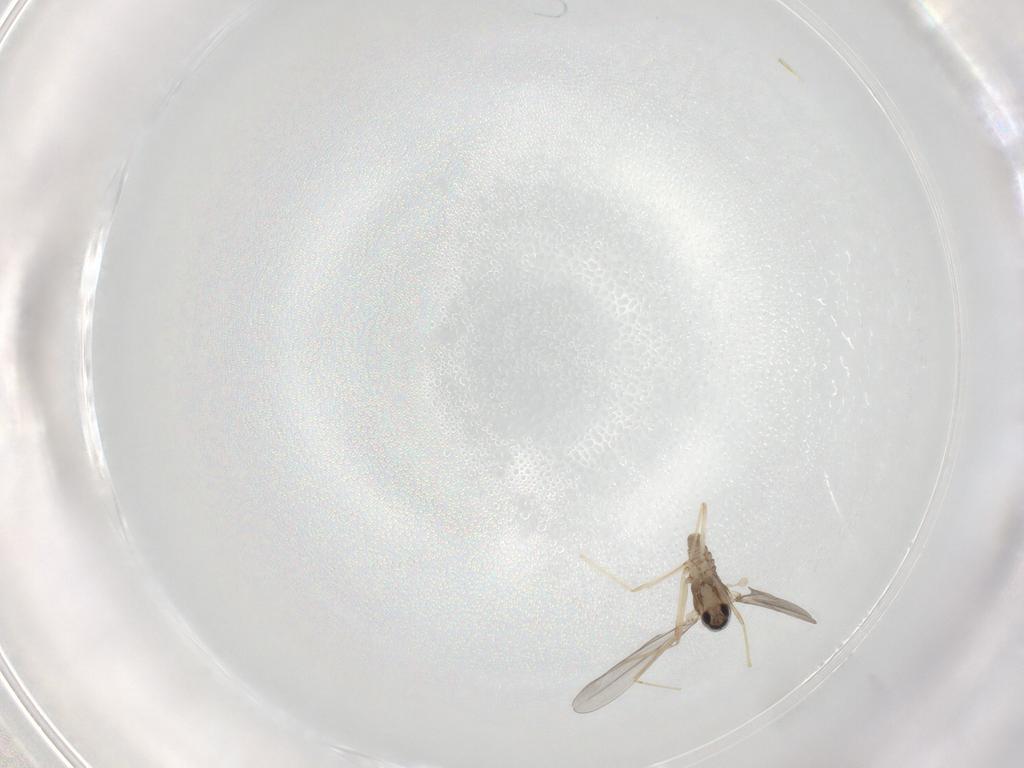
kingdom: Animalia
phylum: Arthropoda
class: Insecta
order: Diptera
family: Cecidomyiidae
